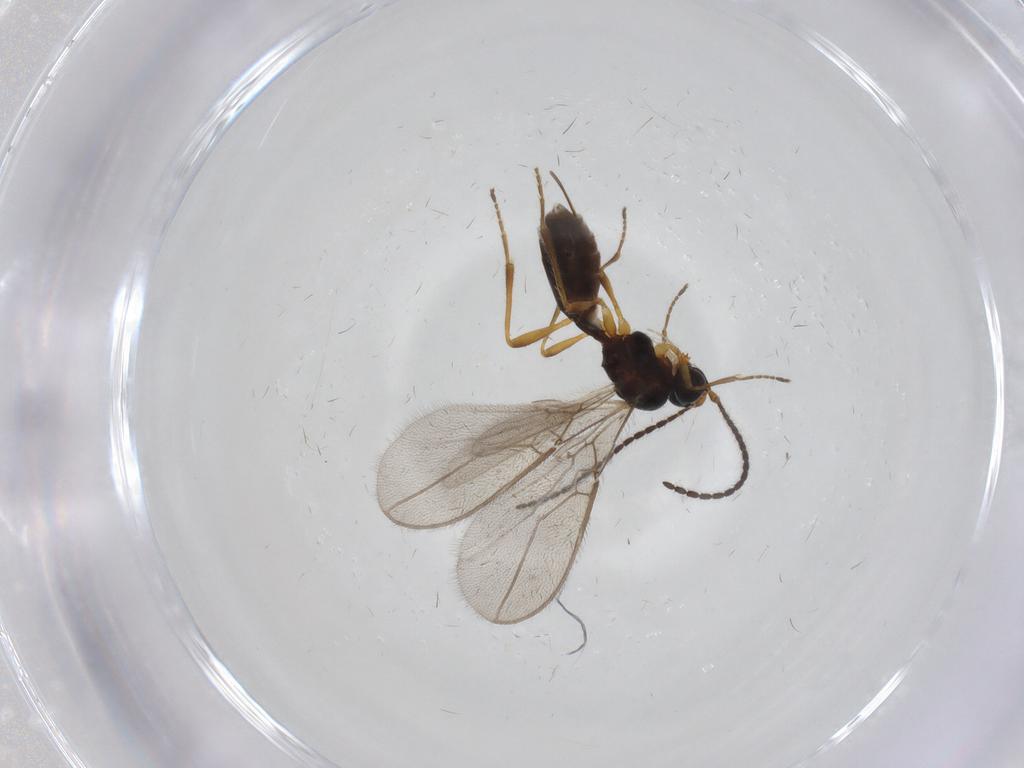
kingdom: Animalia
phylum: Arthropoda
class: Insecta
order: Hymenoptera
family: Braconidae
